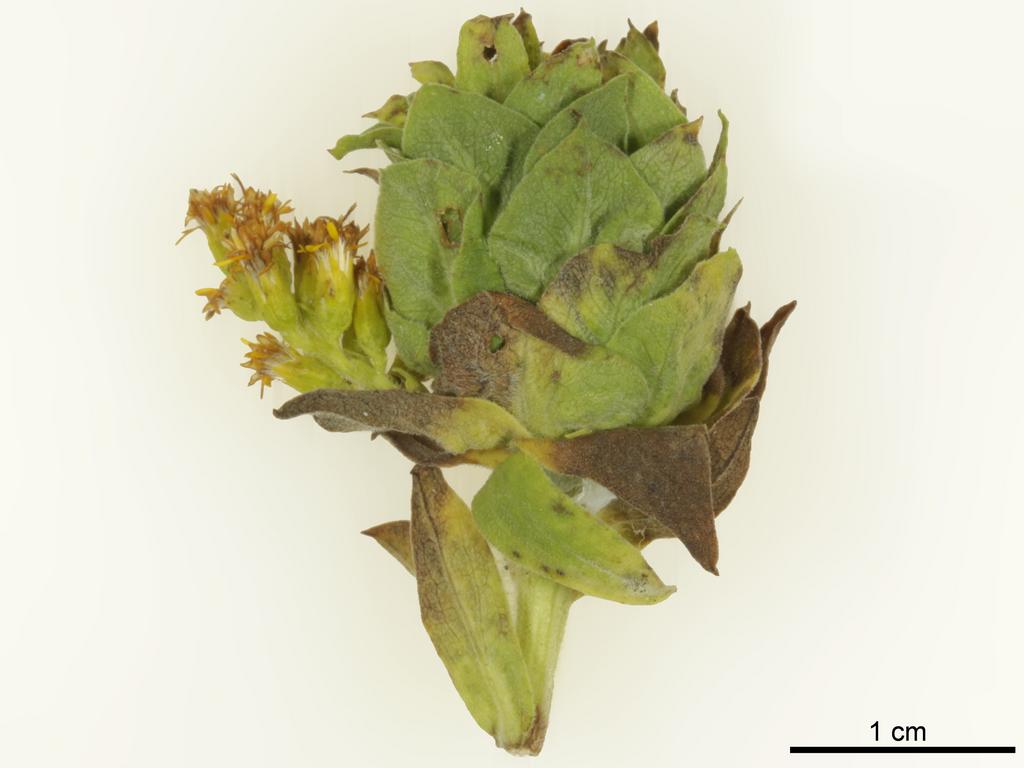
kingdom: Animalia
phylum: Arthropoda
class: Insecta
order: Hymenoptera
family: Torymidae
